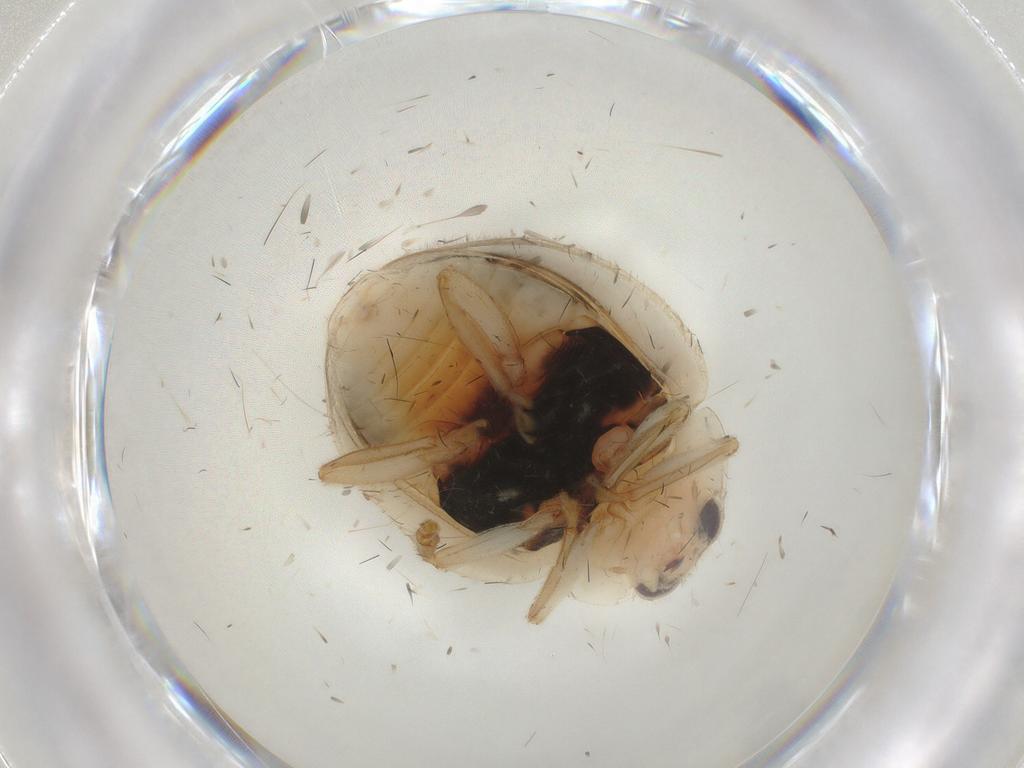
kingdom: Animalia
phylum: Arthropoda
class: Insecta
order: Coleoptera
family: Coccinellidae
